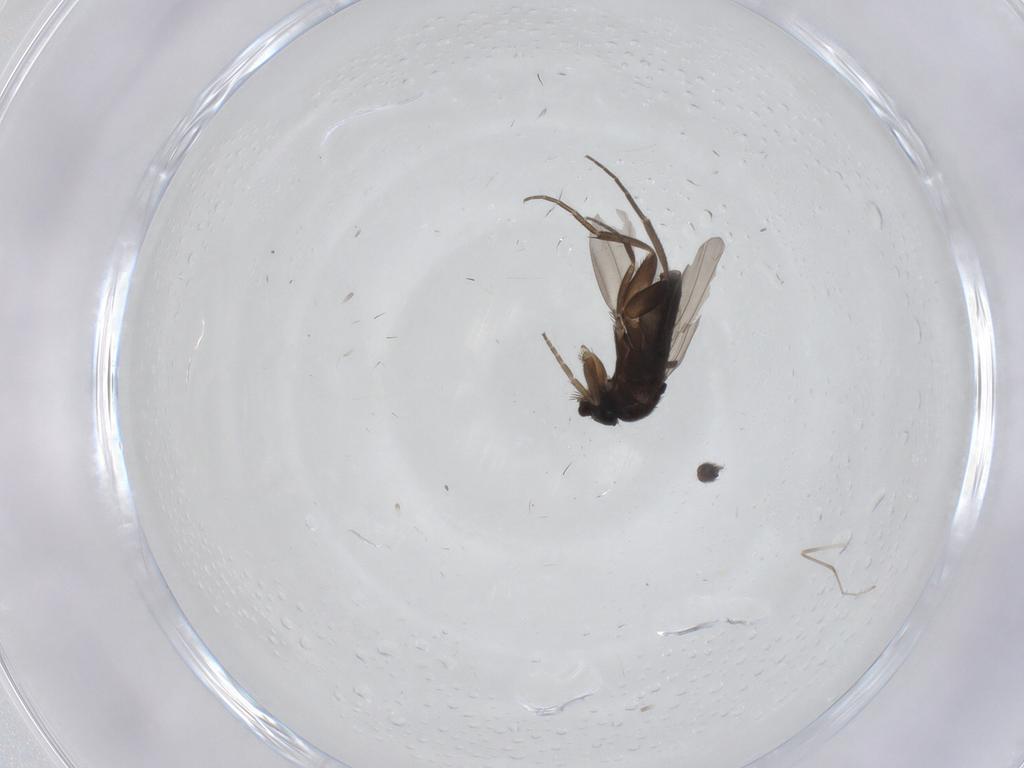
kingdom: Animalia
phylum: Arthropoda
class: Insecta
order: Diptera
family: Phoridae
